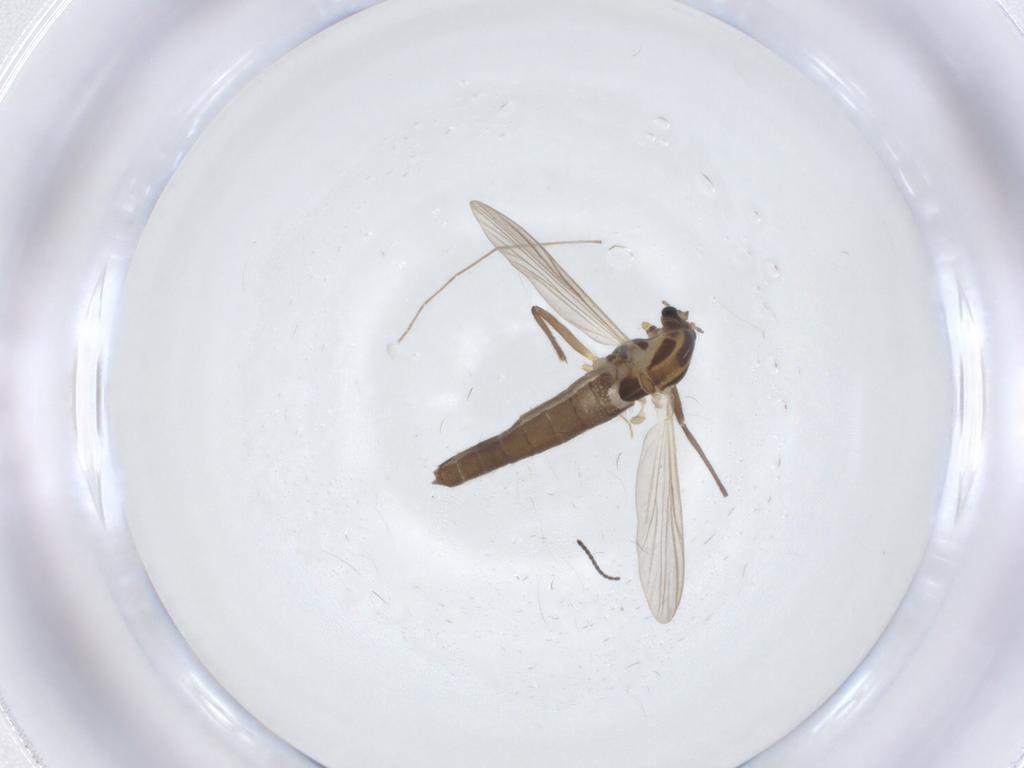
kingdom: Animalia
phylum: Arthropoda
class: Insecta
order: Diptera
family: Chironomidae
